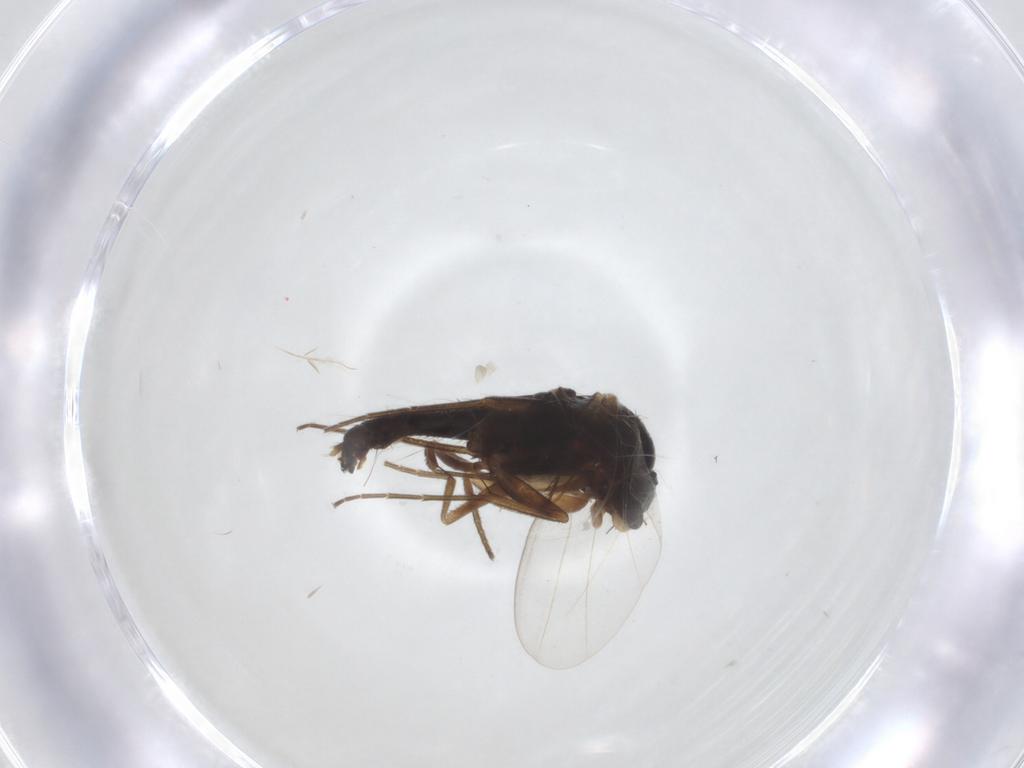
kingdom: Animalia
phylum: Arthropoda
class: Insecta
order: Diptera
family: Phoridae
